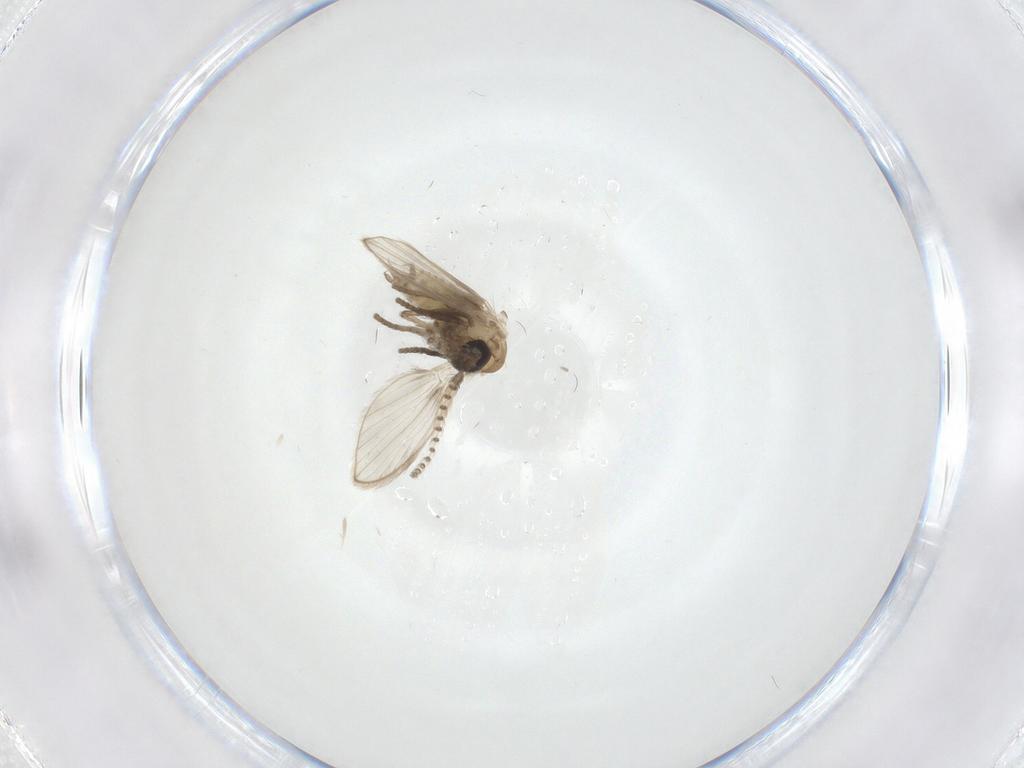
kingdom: Animalia
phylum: Arthropoda
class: Insecta
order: Diptera
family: Psychodidae
